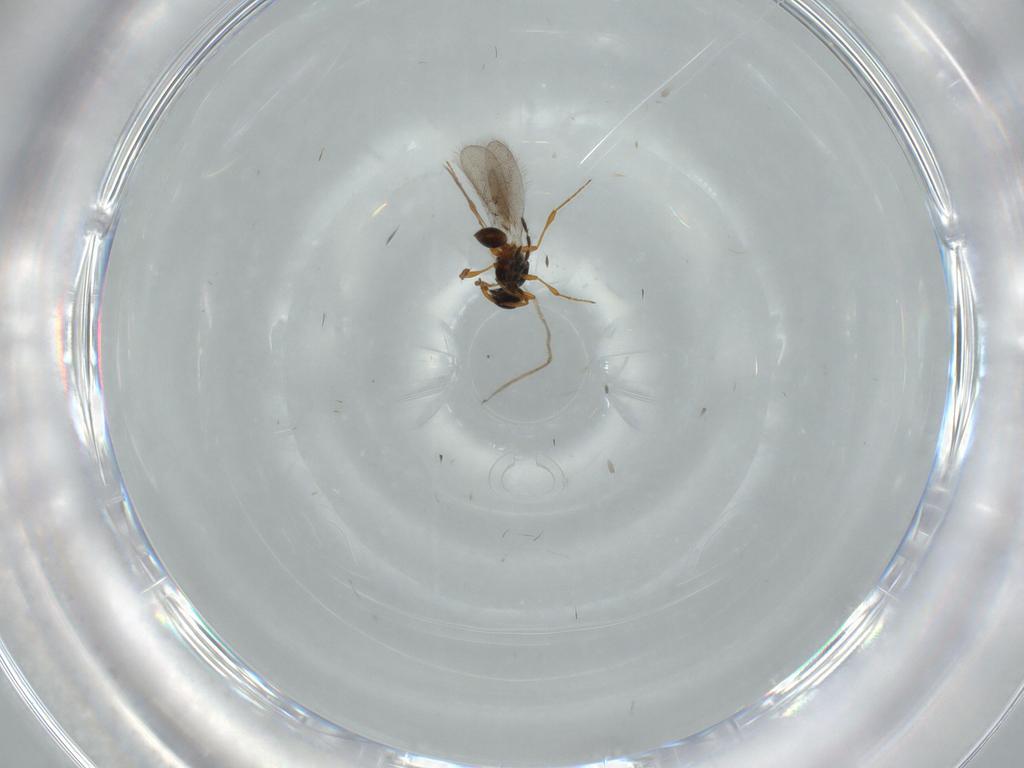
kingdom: Animalia
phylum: Arthropoda
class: Insecta
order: Hymenoptera
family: Platygastridae
